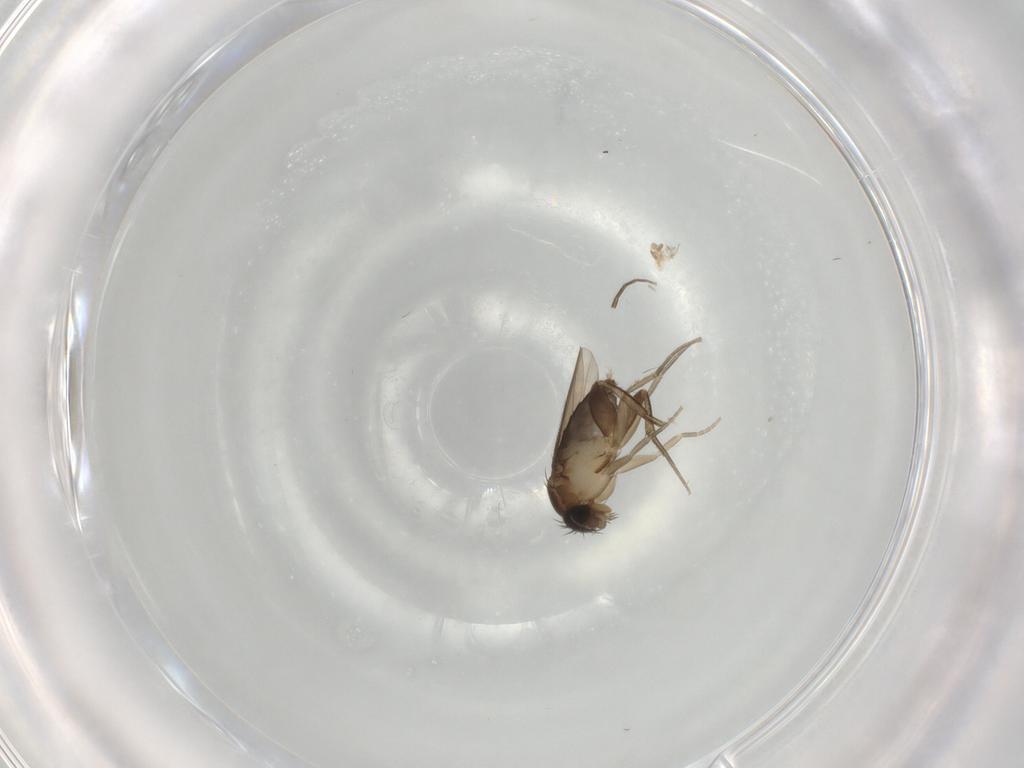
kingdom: Animalia
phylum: Arthropoda
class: Insecta
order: Diptera
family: Phoridae
